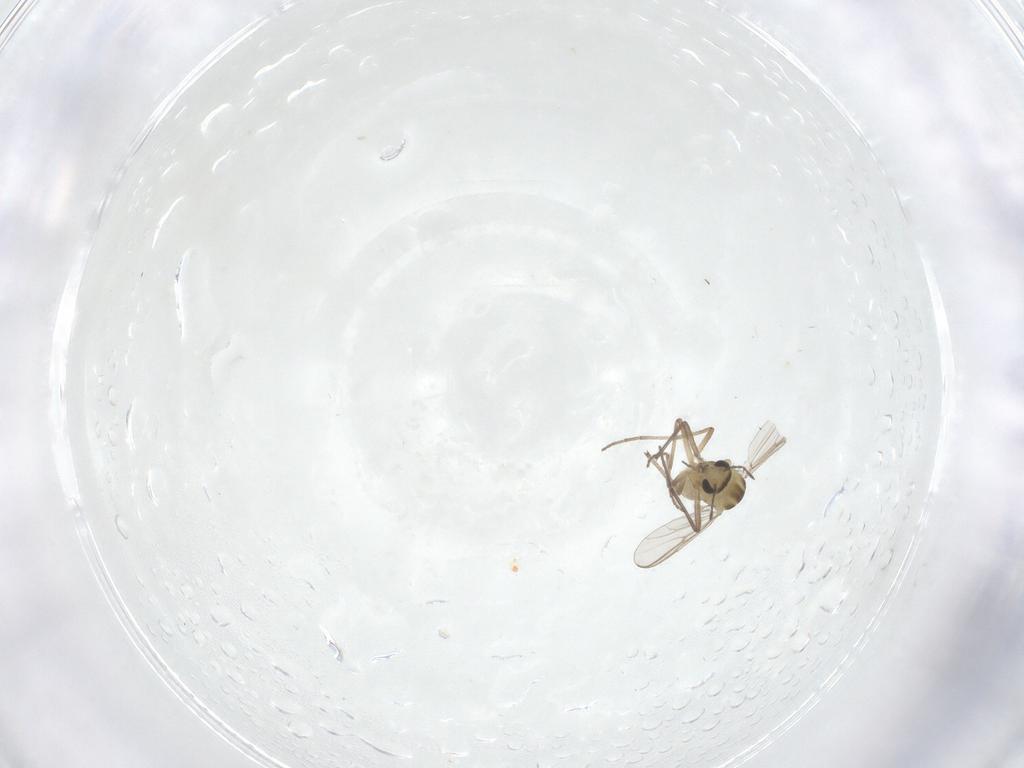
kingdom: Animalia
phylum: Arthropoda
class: Insecta
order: Diptera
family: Chironomidae
